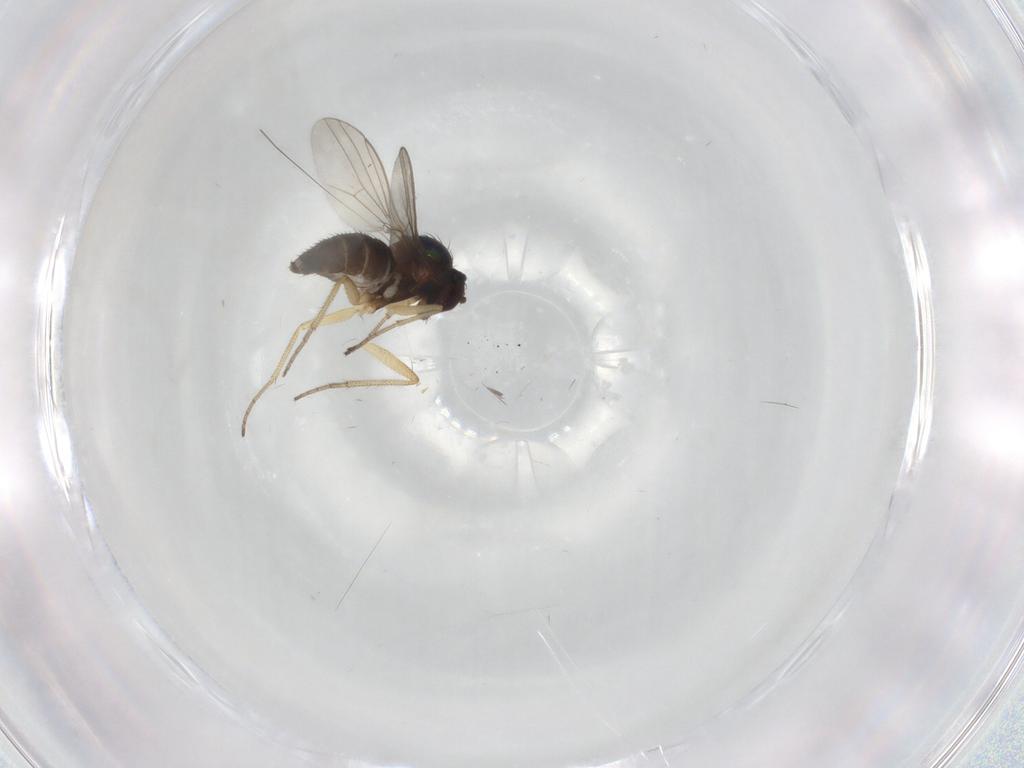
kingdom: Animalia
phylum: Arthropoda
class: Insecta
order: Diptera
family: Dolichopodidae
